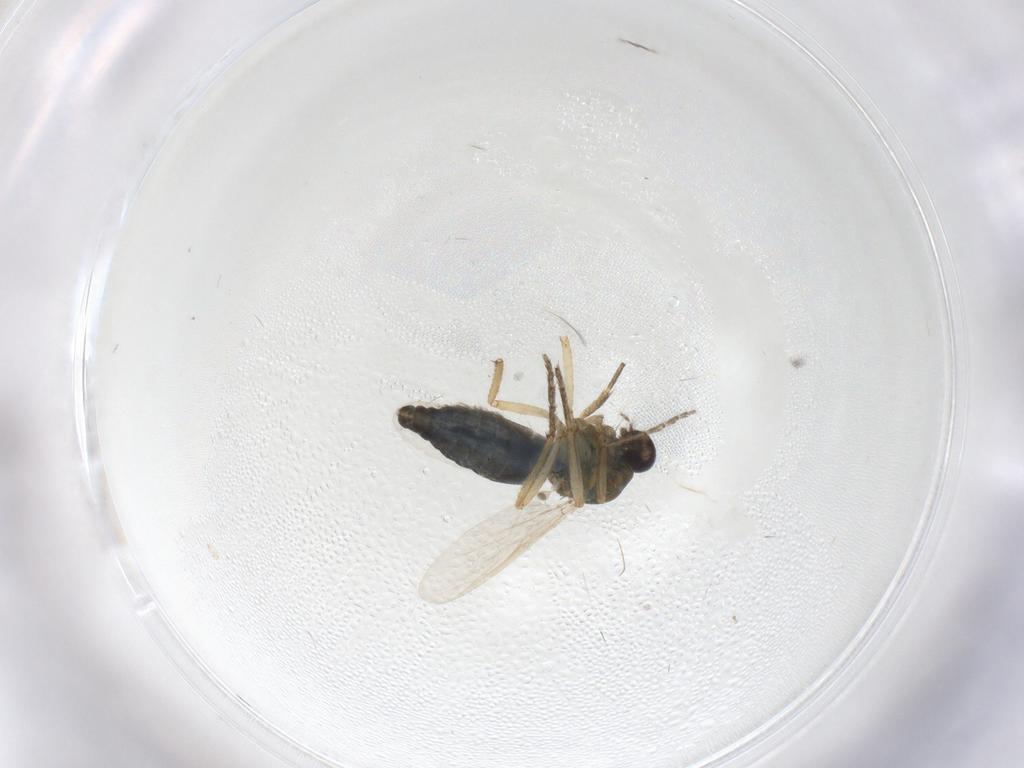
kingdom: Animalia
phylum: Arthropoda
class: Insecta
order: Diptera
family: Ceratopogonidae
